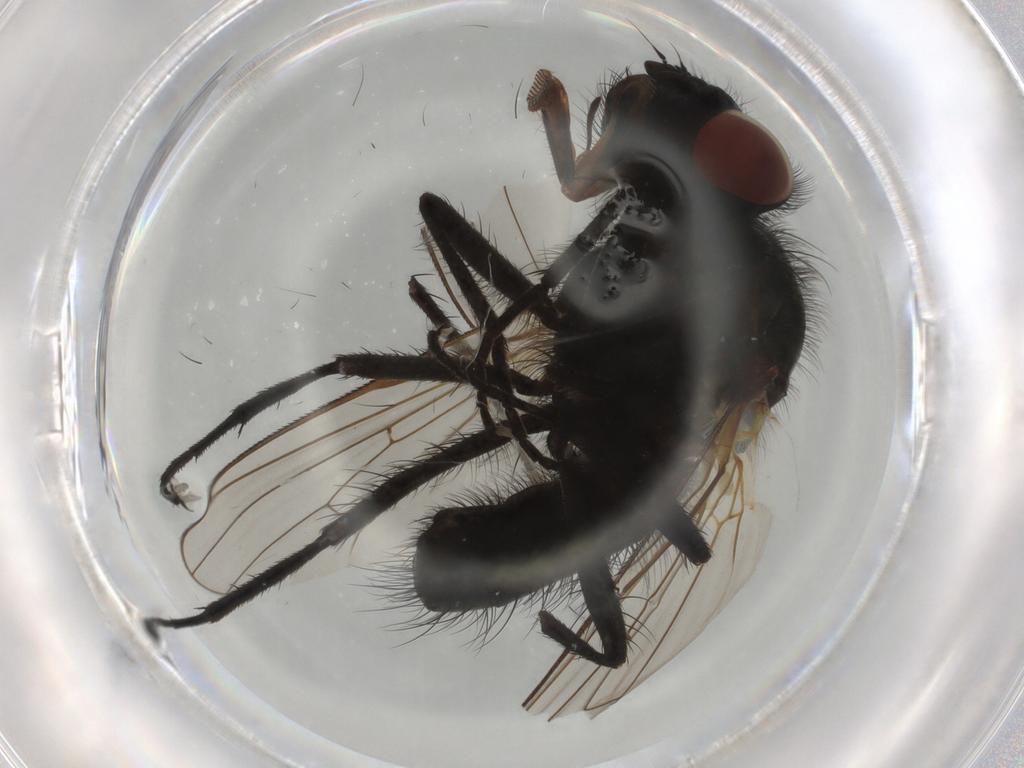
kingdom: Animalia
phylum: Arthropoda
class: Insecta
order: Diptera
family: Anthomyiidae
